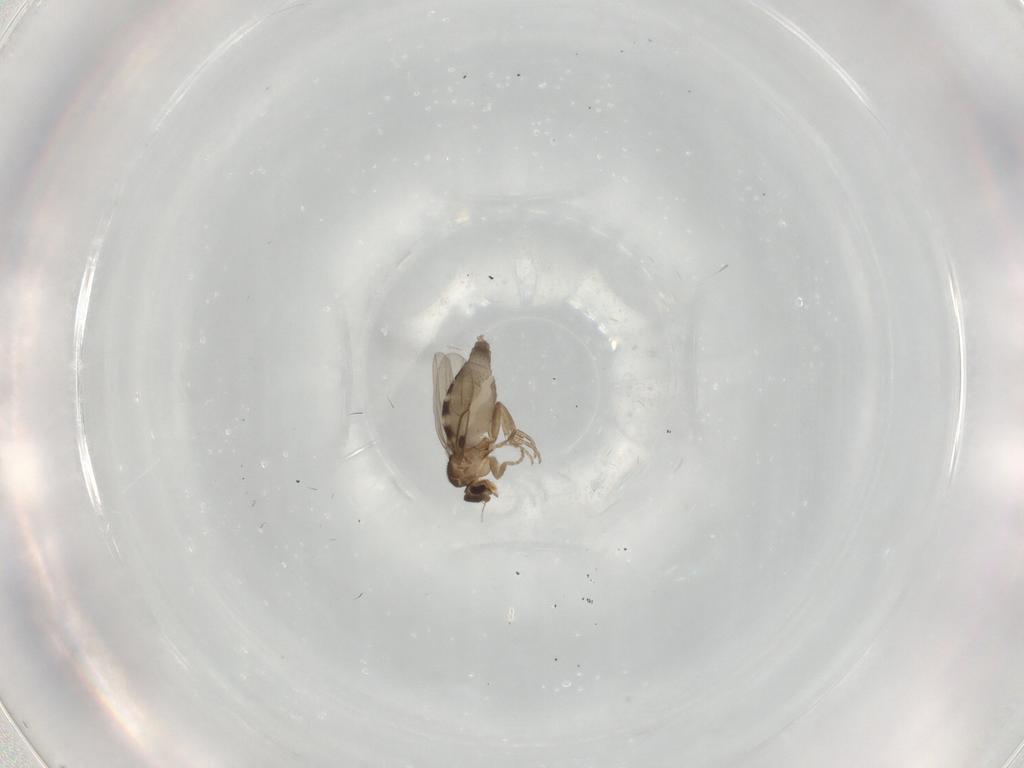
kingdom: Animalia
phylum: Arthropoda
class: Insecta
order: Diptera
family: Phoridae
